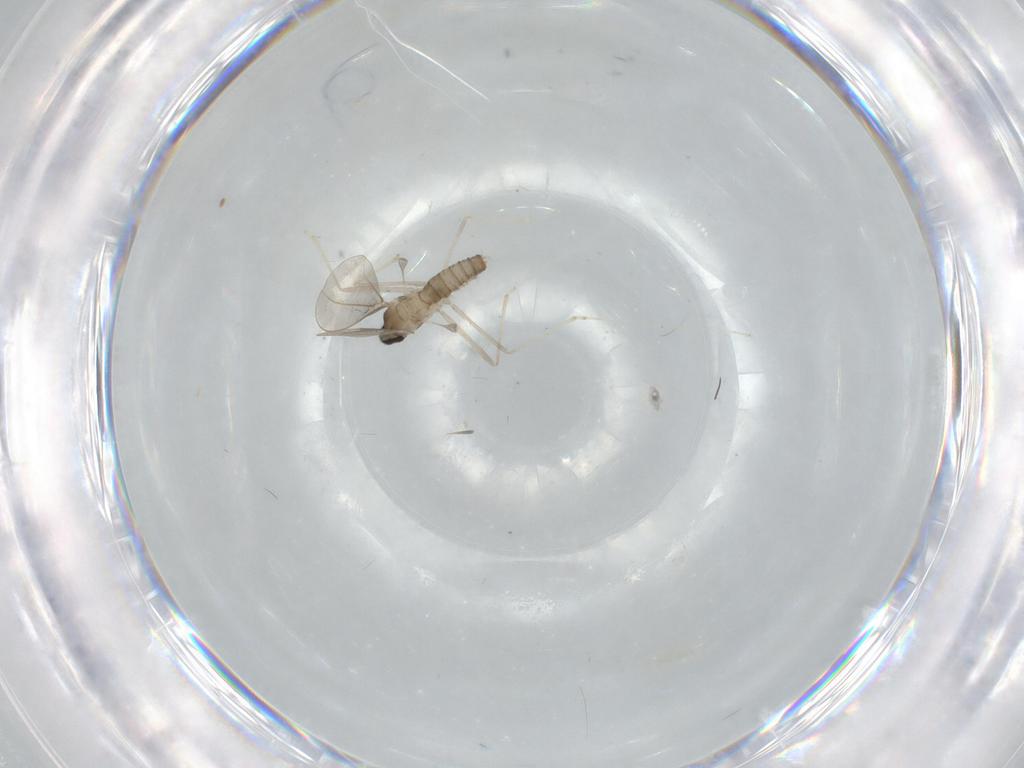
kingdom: Animalia
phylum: Arthropoda
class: Insecta
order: Diptera
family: Cecidomyiidae
